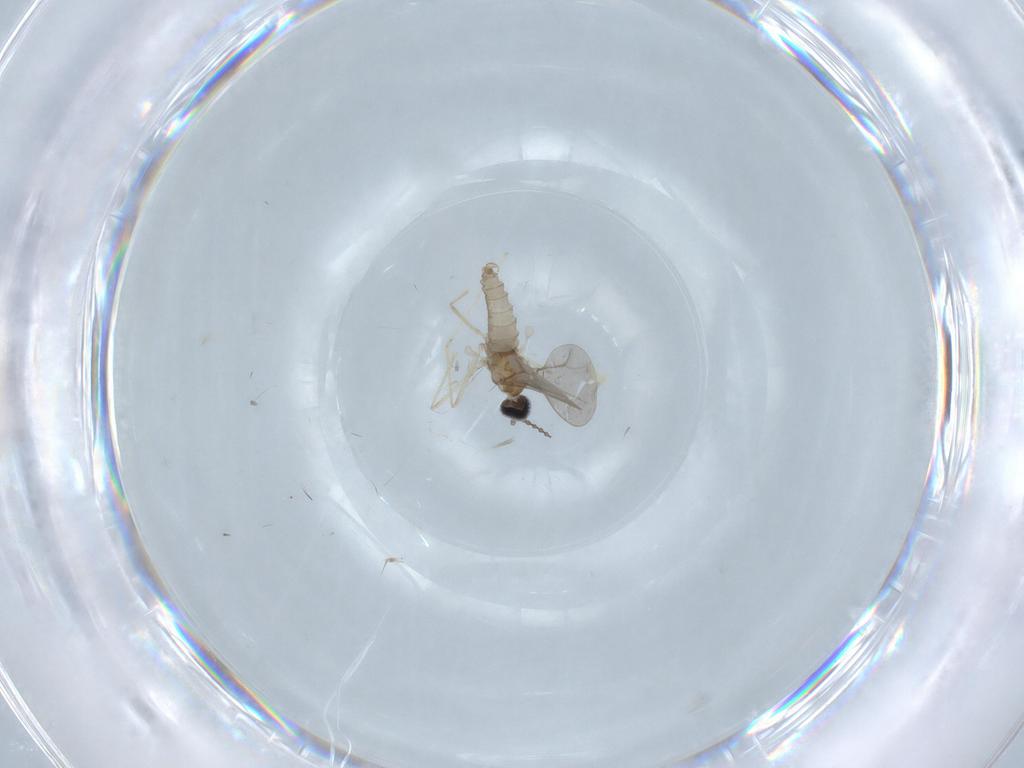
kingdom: Animalia
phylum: Arthropoda
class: Insecta
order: Diptera
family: Cecidomyiidae
